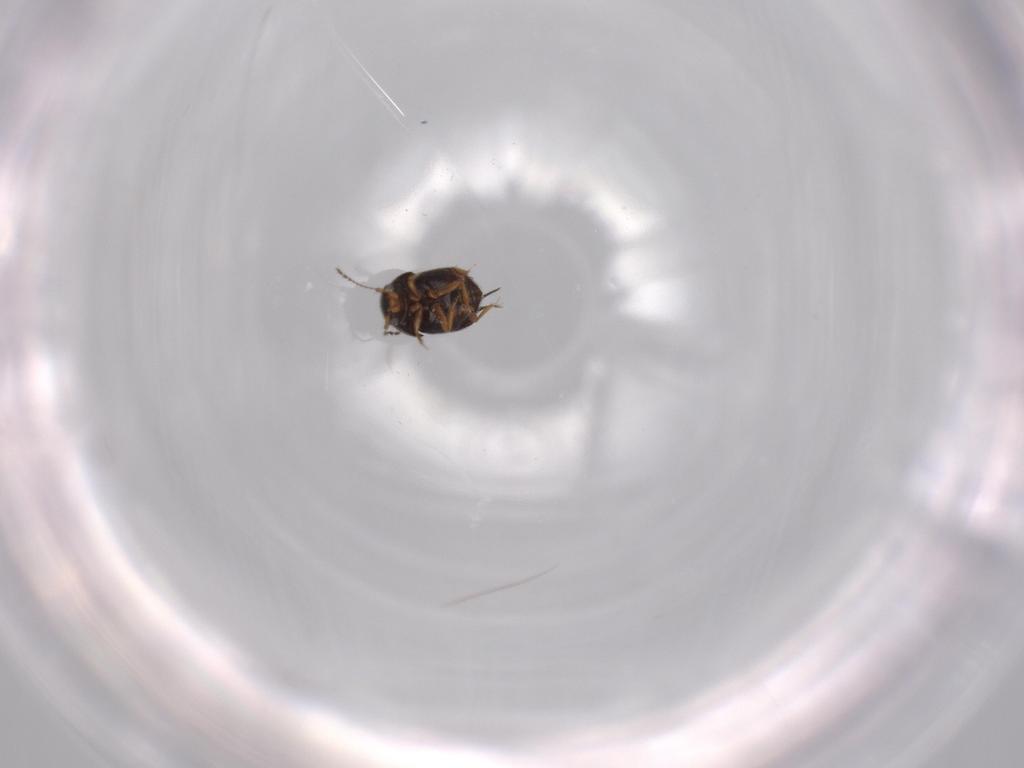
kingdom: Animalia
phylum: Arthropoda
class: Insecta
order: Coleoptera
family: Ptiliidae
